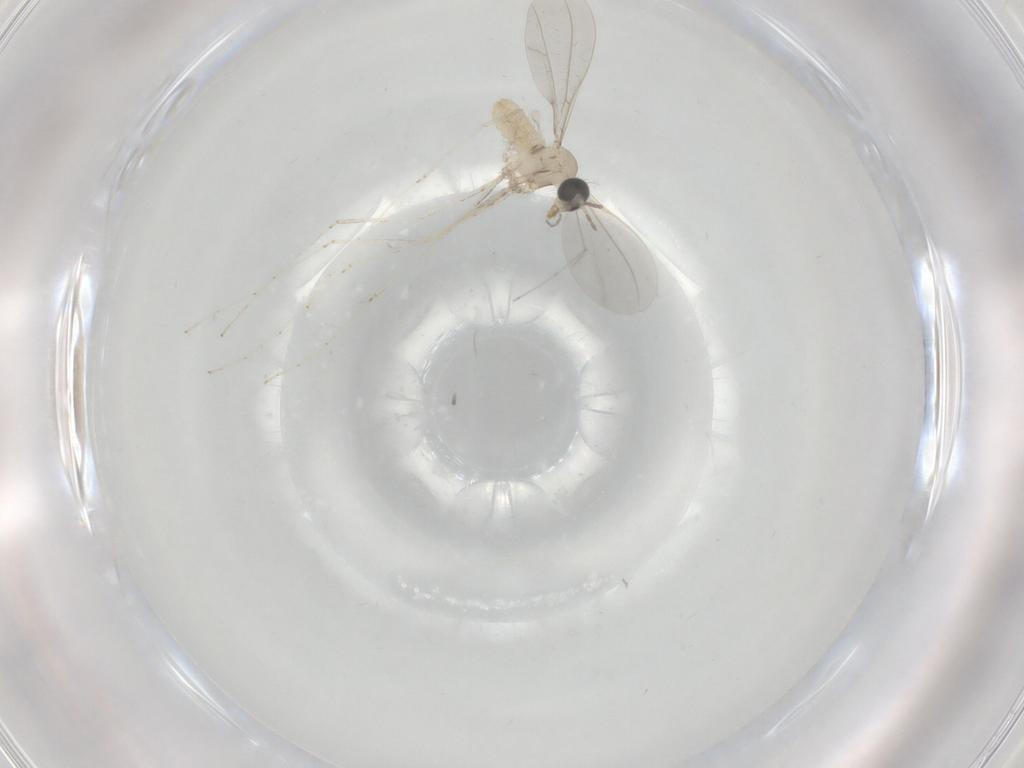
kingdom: Animalia
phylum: Arthropoda
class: Insecta
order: Diptera
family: Cecidomyiidae
